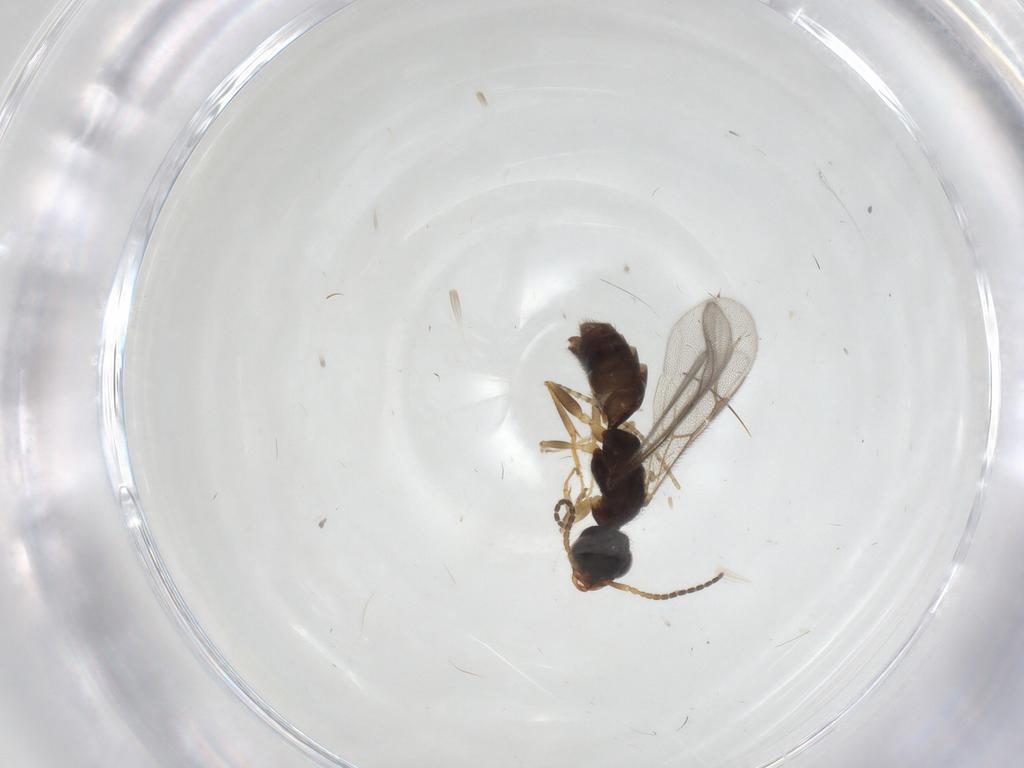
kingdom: Animalia
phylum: Arthropoda
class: Insecta
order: Hymenoptera
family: Bethylidae
